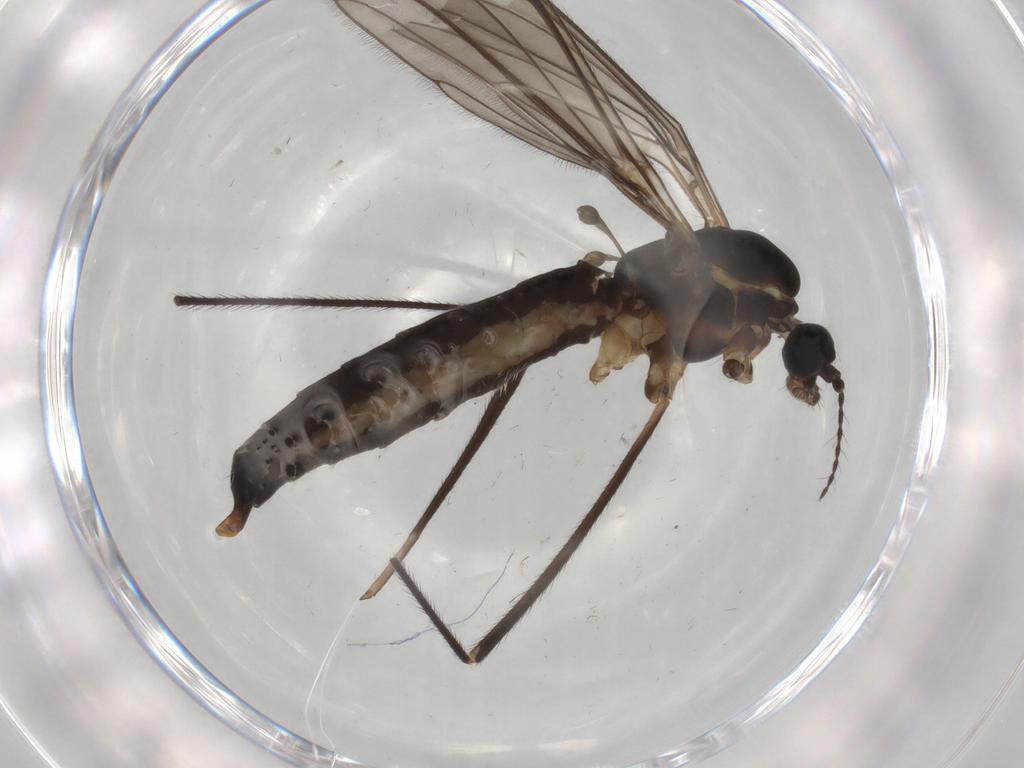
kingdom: Animalia
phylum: Arthropoda
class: Insecta
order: Diptera
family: Limoniidae
